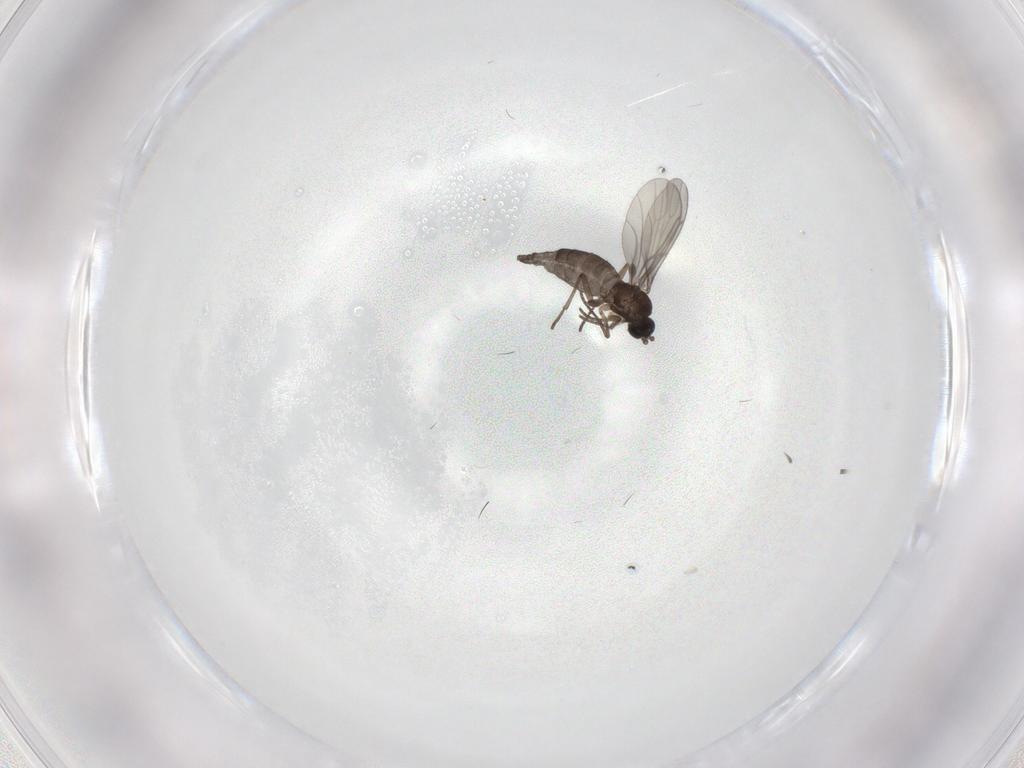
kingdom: Animalia
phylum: Arthropoda
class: Insecta
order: Diptera
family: Sciaridae
